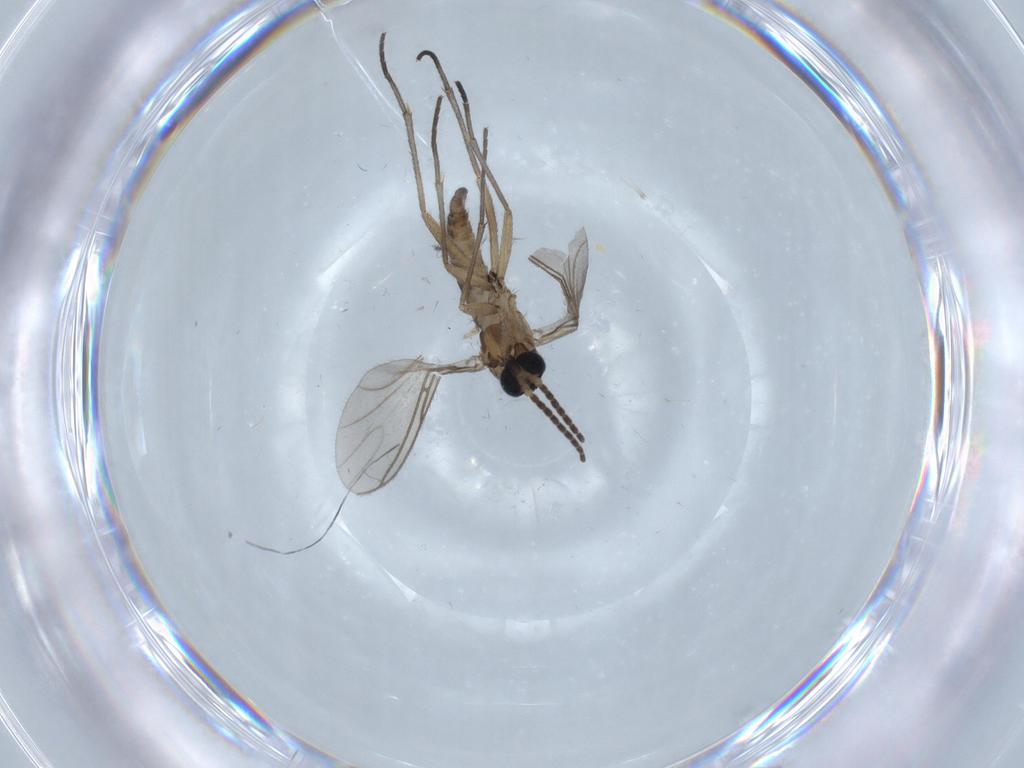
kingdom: Animalia
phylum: Arthropoda
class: Insecta
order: Diptera
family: Sciaridae
